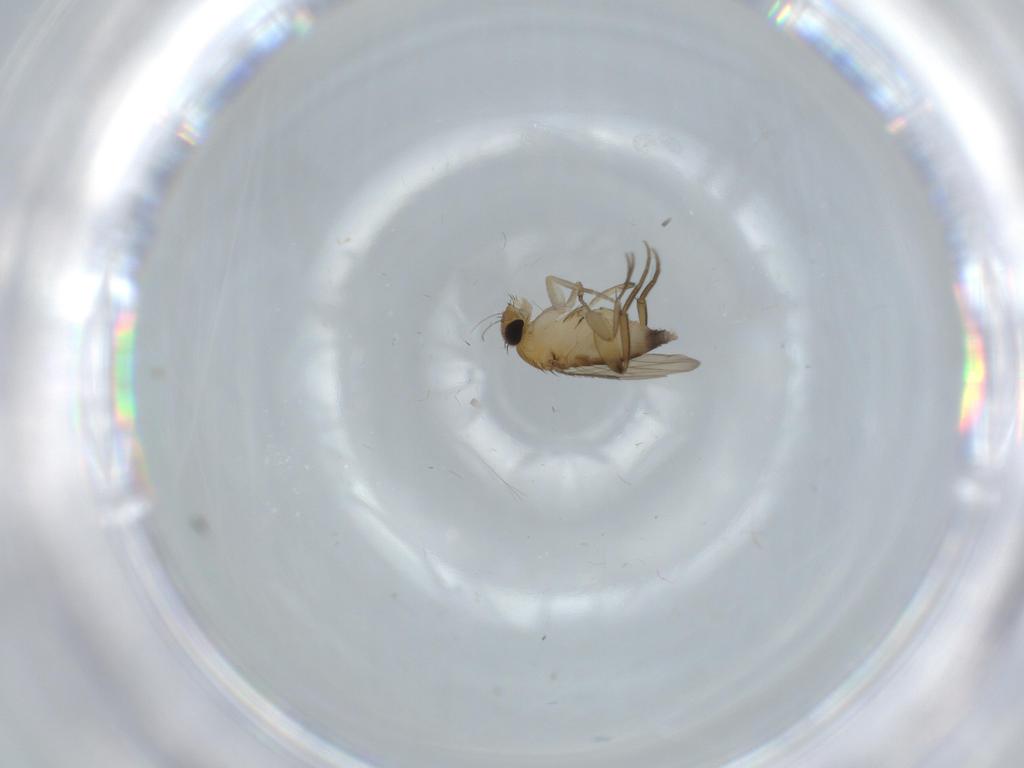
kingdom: Animalia
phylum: Arthropoda
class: Insecta
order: Diptera
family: Phoridae
